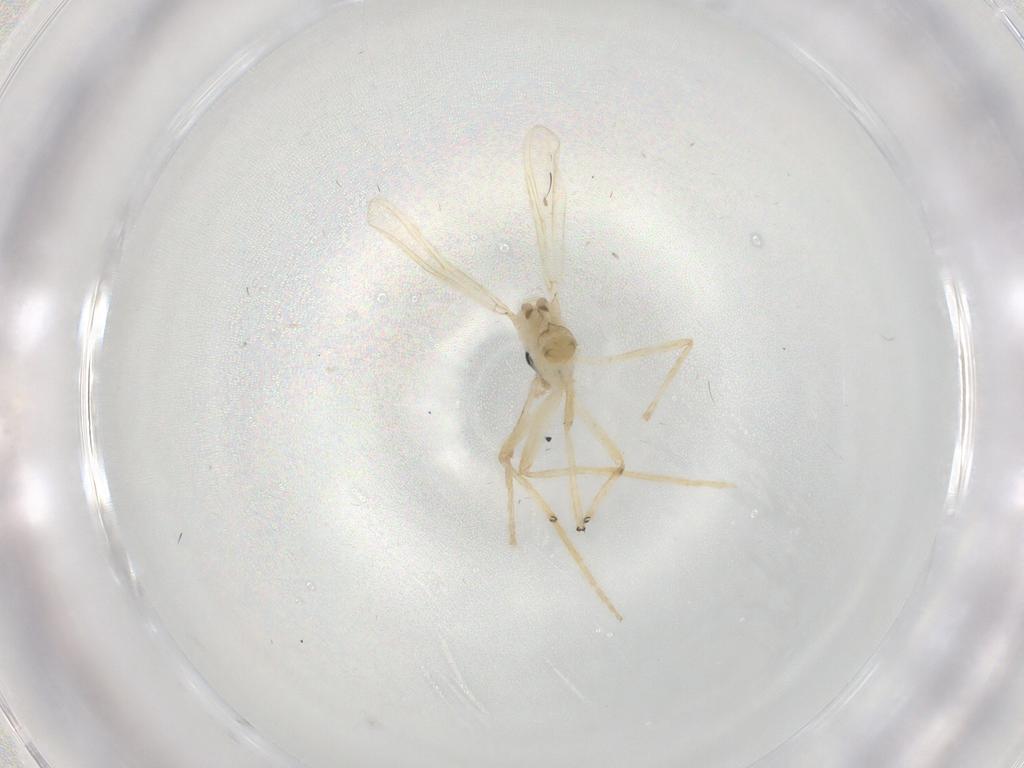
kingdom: Animalia
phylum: Arthropoda
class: Insecta
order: Diptera
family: Chironomidae
